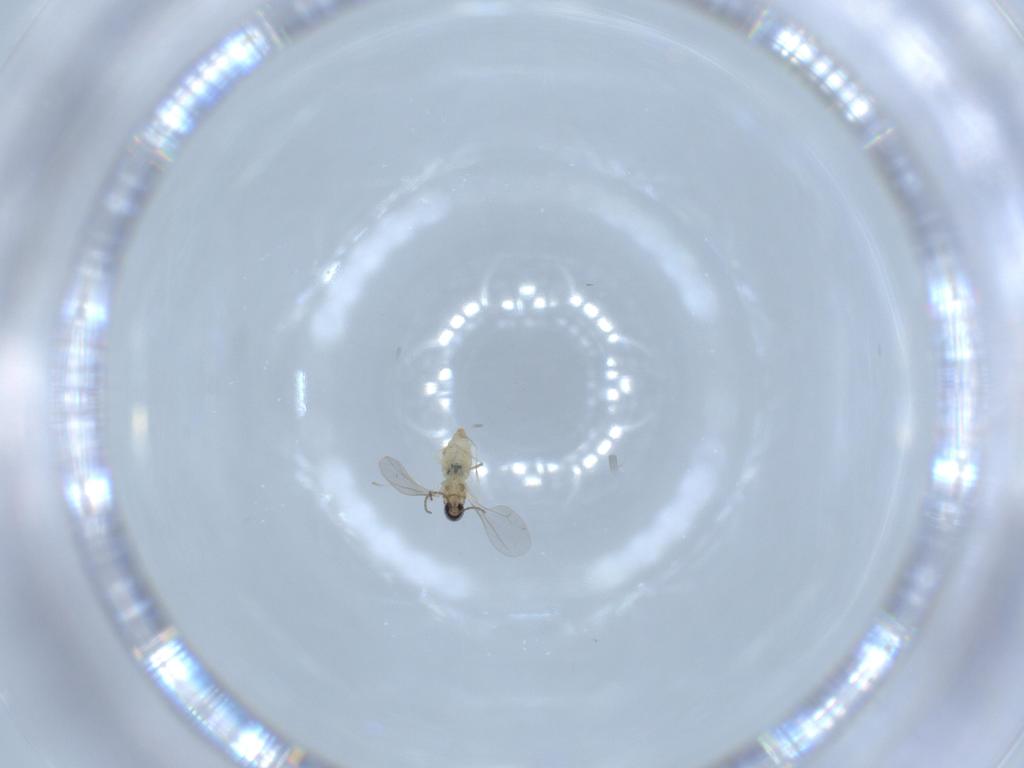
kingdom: Animalia
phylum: Arthropoda
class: Insecta
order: Diptera
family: Cecidomyiidae
